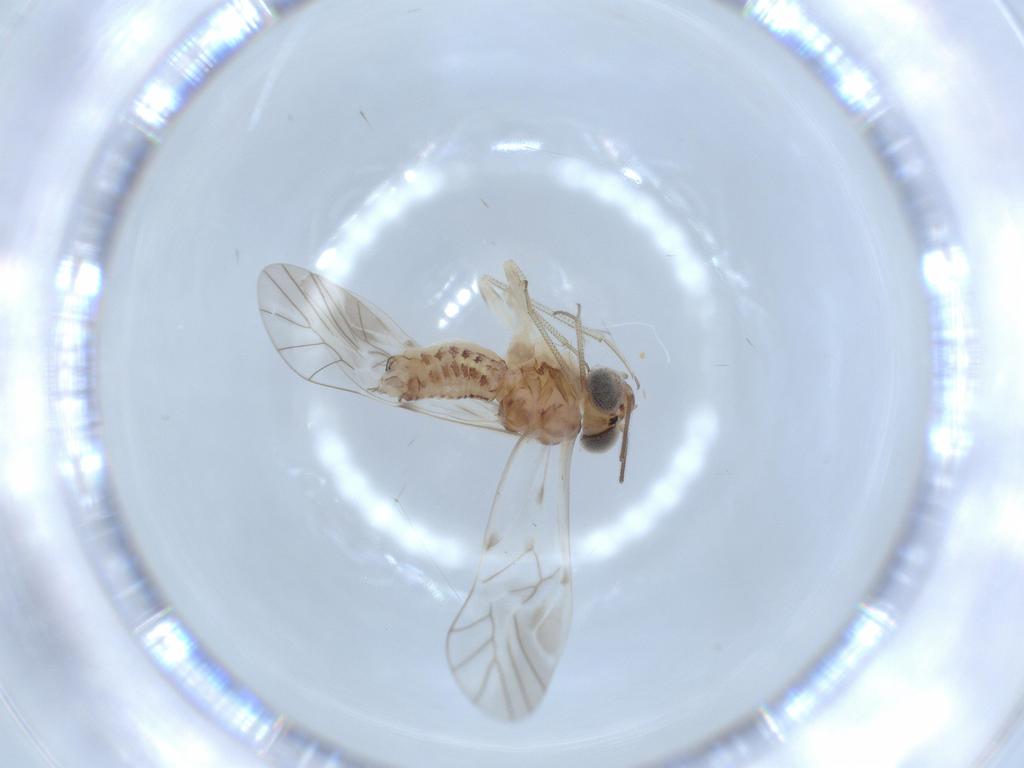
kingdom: Animalia
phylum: Arthropoda
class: Insecta
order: Psocodea
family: Psocidae
